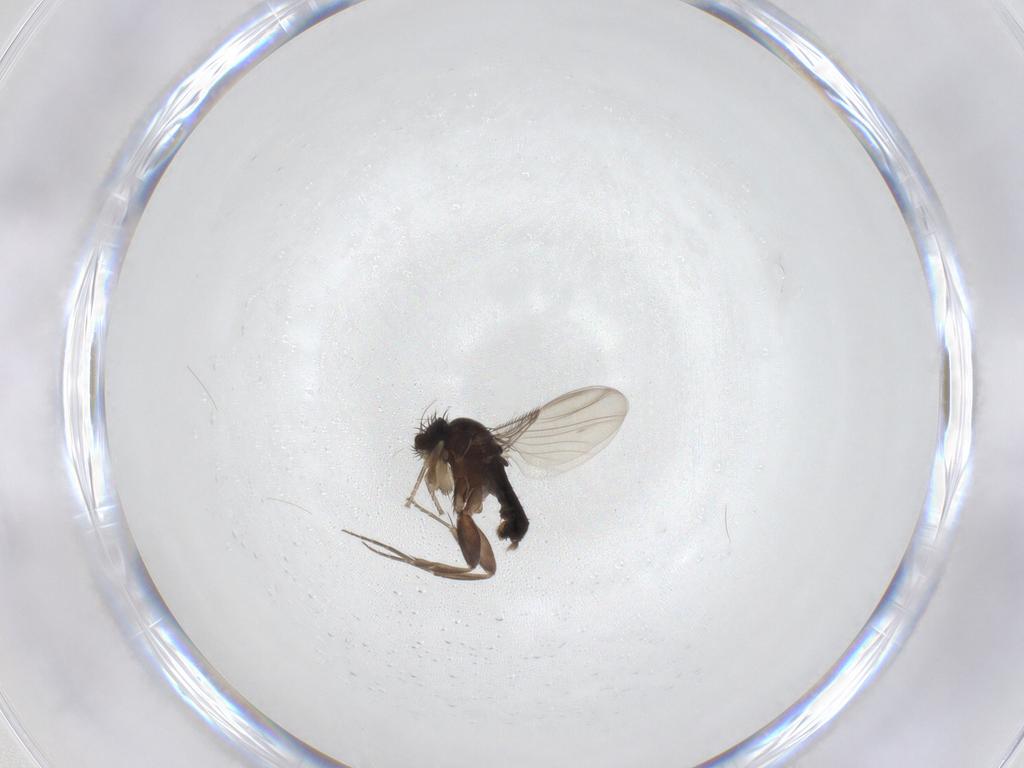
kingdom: Animalia
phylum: Arthropoda
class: Insecta
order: Diptera
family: Phoridae
